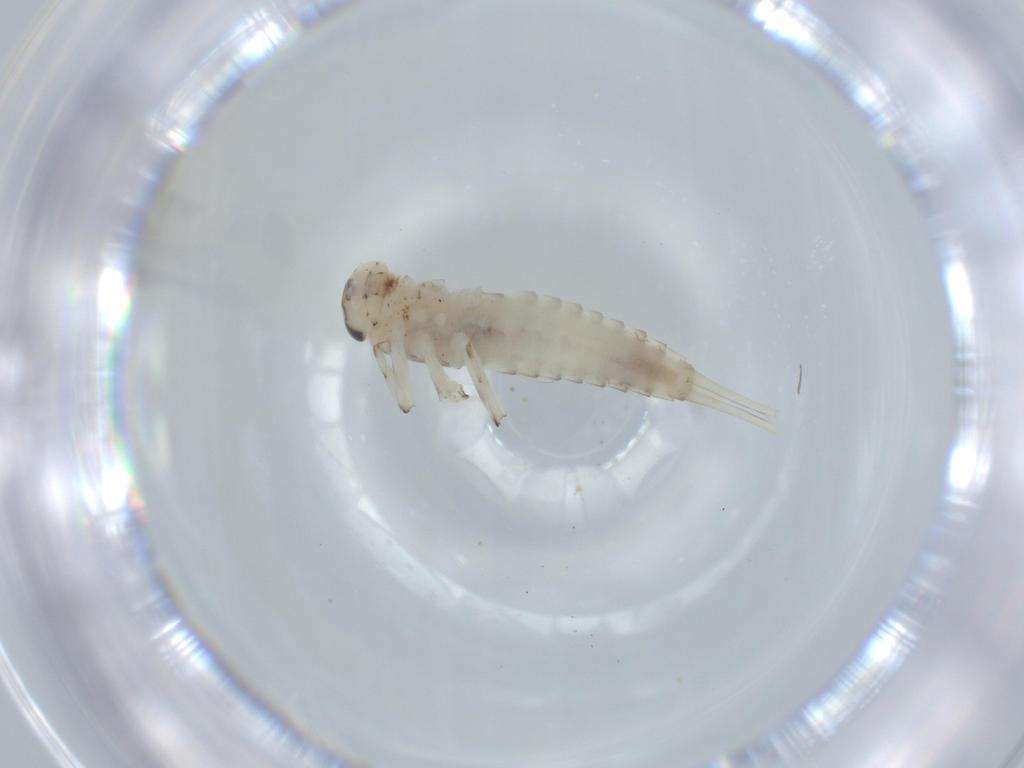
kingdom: Animalia
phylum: Arthropoda
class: Insecta
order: Ephemeroptera
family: Baetidae
